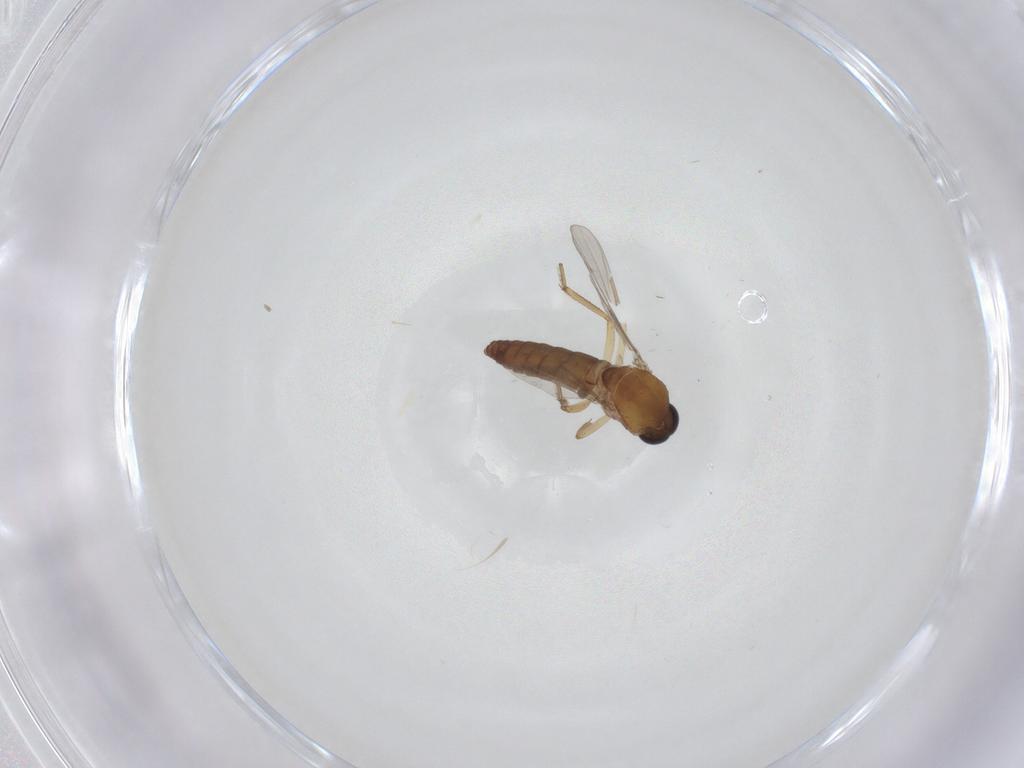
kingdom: Animalia
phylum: Arthropoda
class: Insecta
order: Diptera
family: Ceratopogonidae
